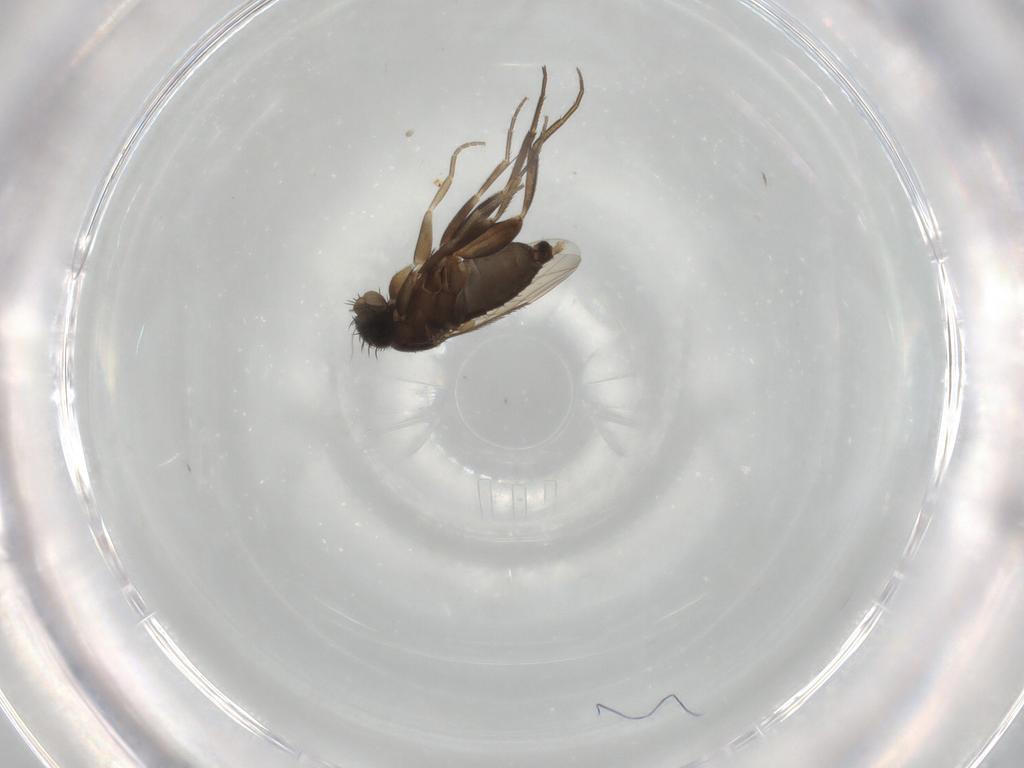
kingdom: Animalia
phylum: Arthropoda
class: Insecta
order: Diptera
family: Phoridae
